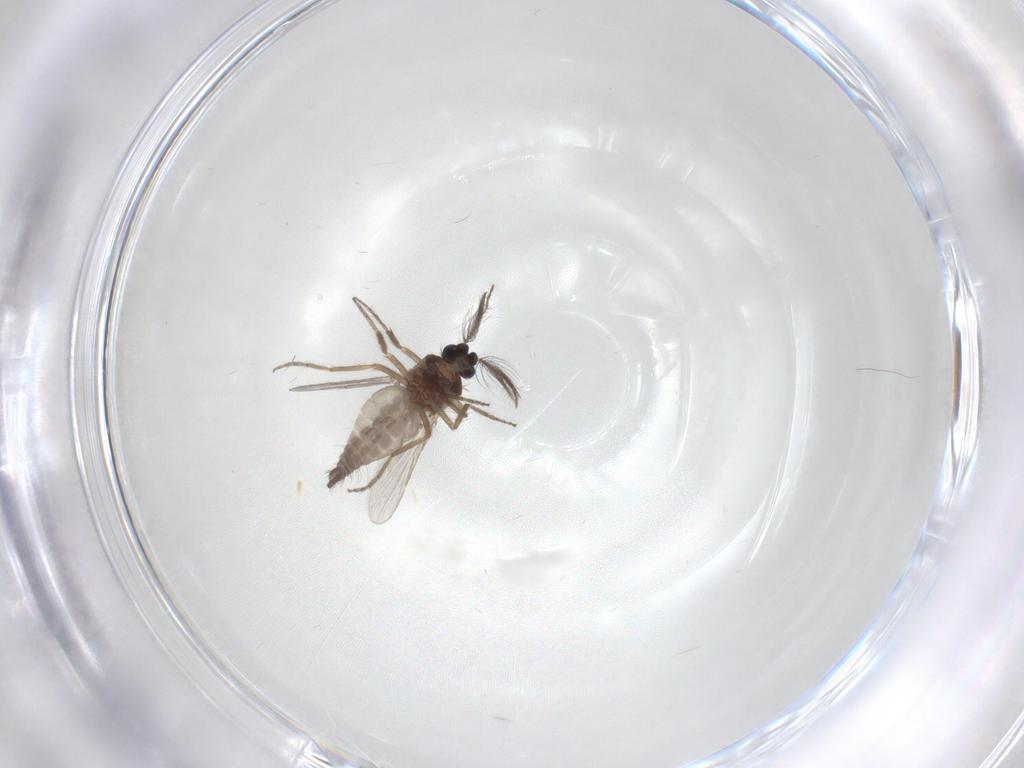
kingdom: Animalia
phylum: Arthropoda
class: Insecta
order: Diptera
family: Ceratopogonidae
